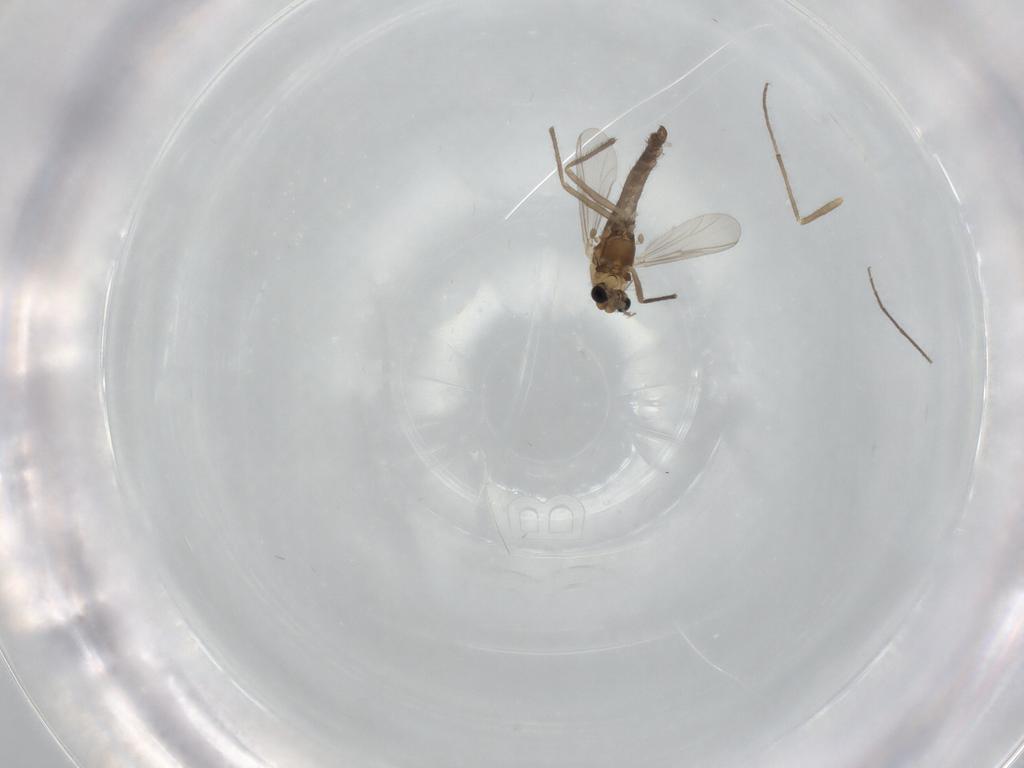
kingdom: Animalia
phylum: Arthropoda
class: Insecta
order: Diptera
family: Chironomidae
